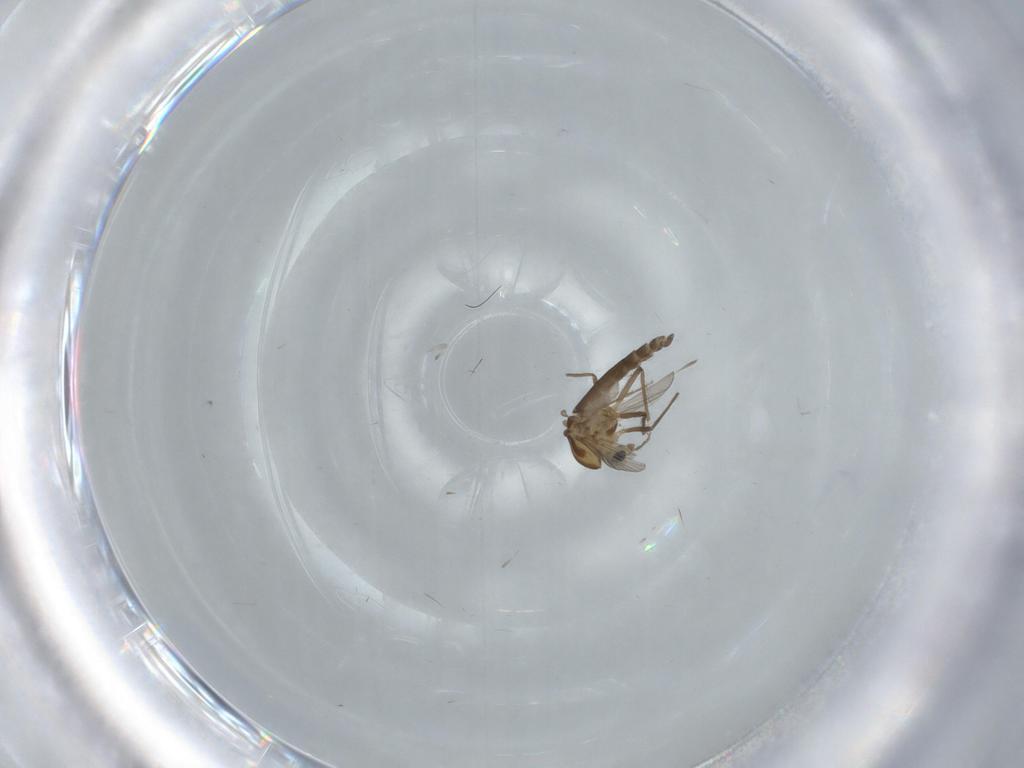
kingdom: Animalia
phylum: Arthropoda
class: Insecta
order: Diptera
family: Chironomidae
